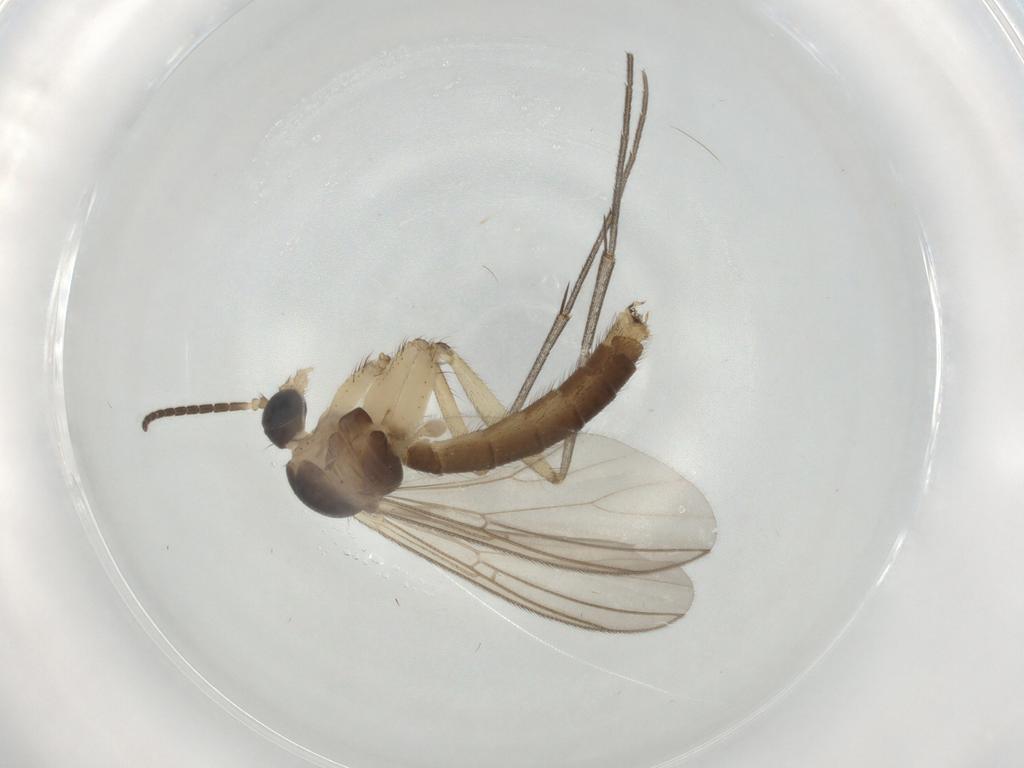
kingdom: Animalia
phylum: Arthropoda
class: Insecta
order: Diptera
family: Mycetophilidae
